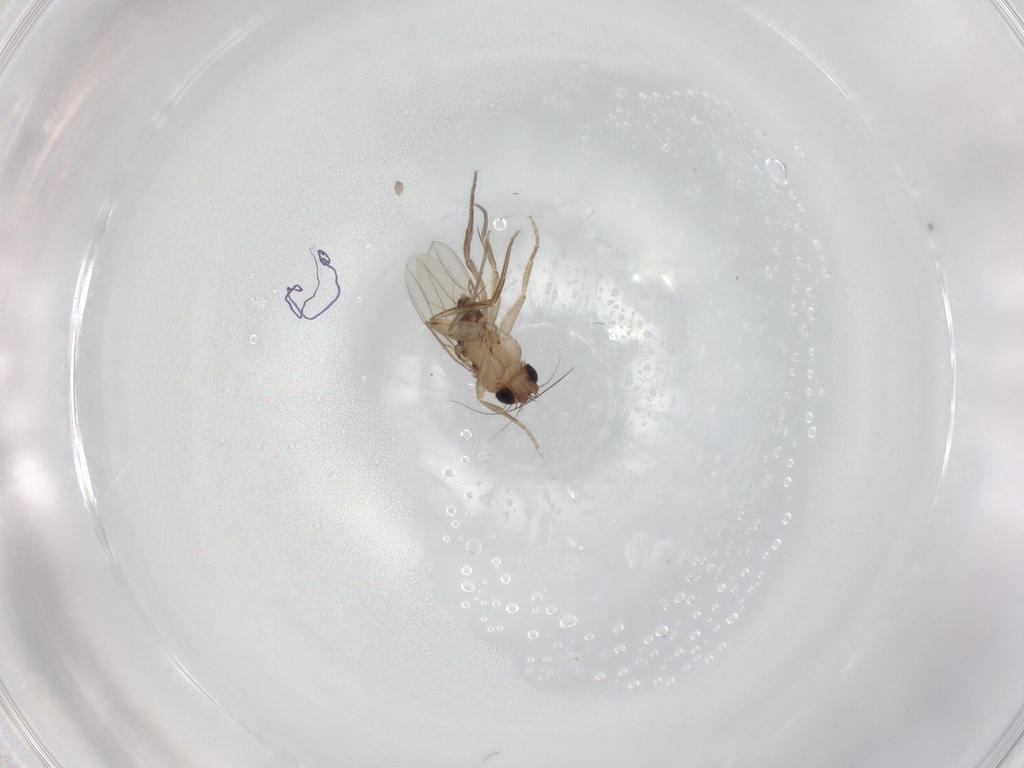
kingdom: Animalia
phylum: Arthropoda
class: Insecta
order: Diptera
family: Phoridae
